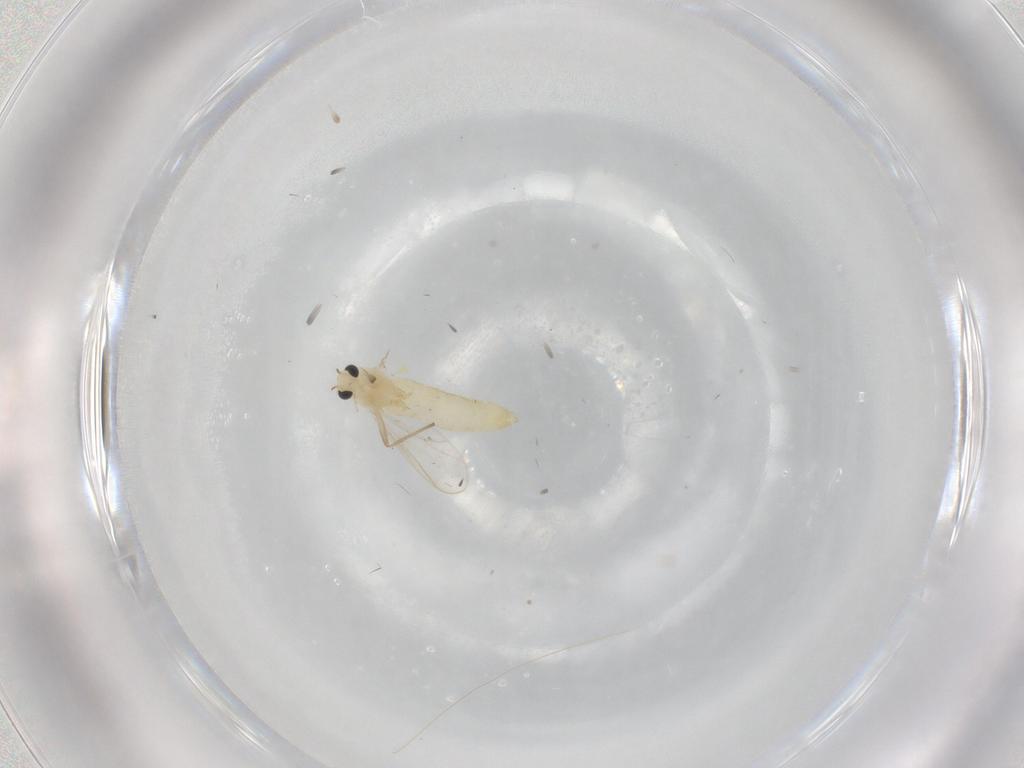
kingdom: Animalia
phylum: Arthropoda
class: Insecta
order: Diptera
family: Chironomidae
